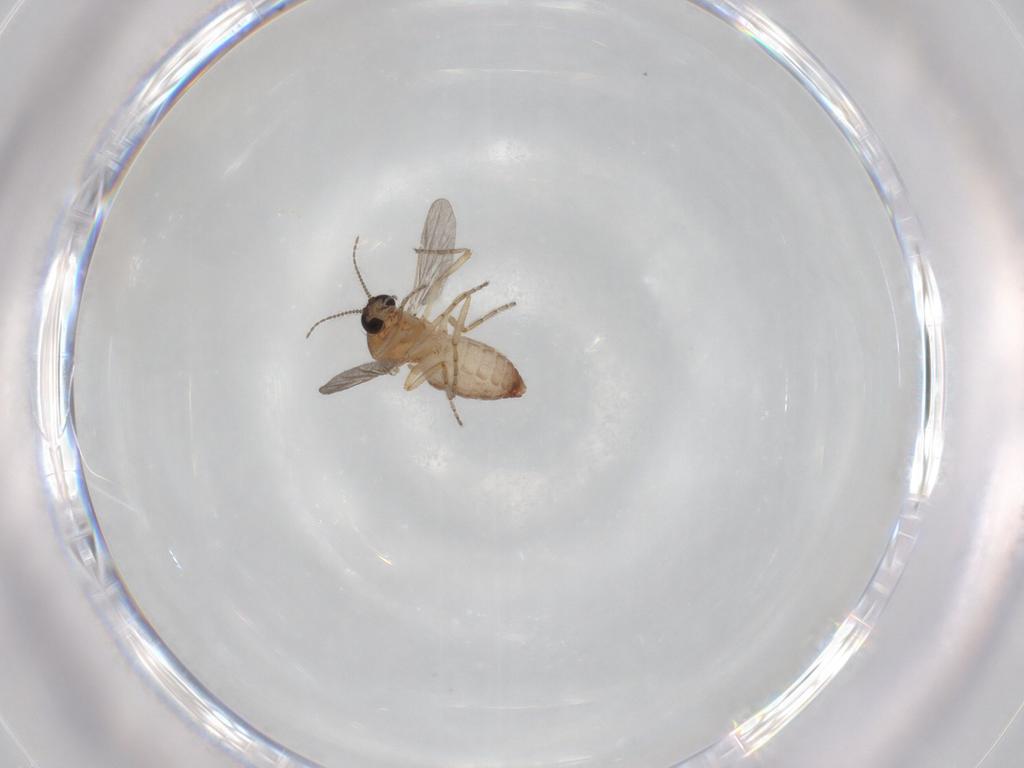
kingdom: Animalia
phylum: Arthropoda
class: Insecta
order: Diptera
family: Ceratopogonidae
